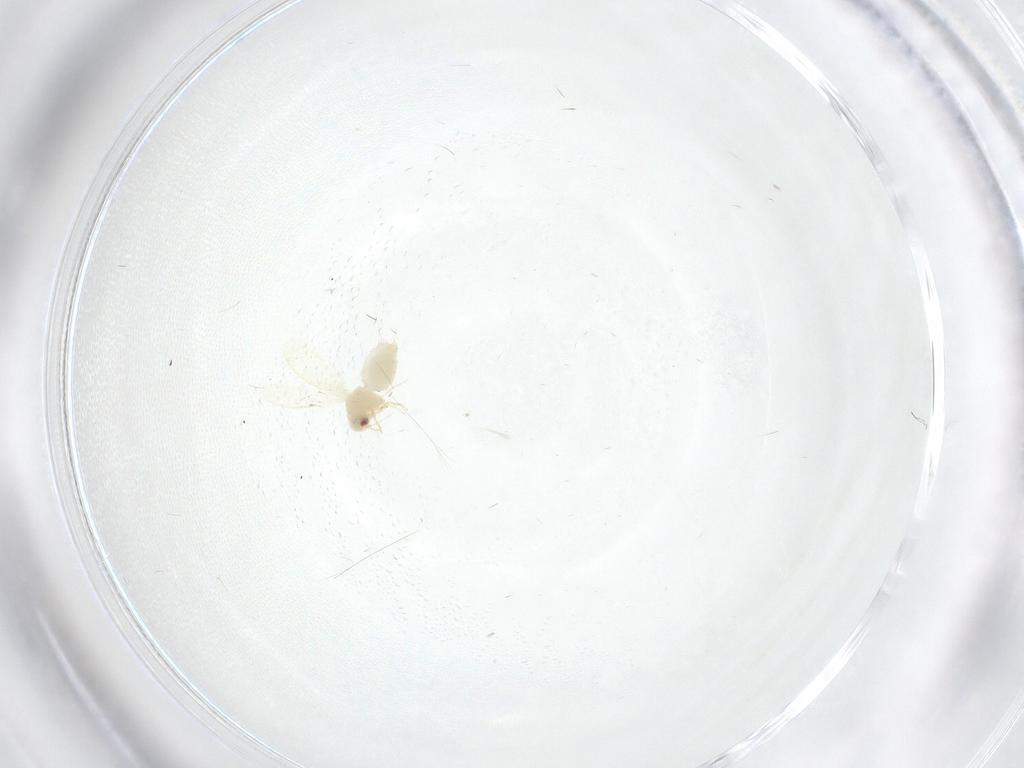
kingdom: Animalia
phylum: Arthropoda
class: Insecta
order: Hemiptera
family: Aleyrodidae
